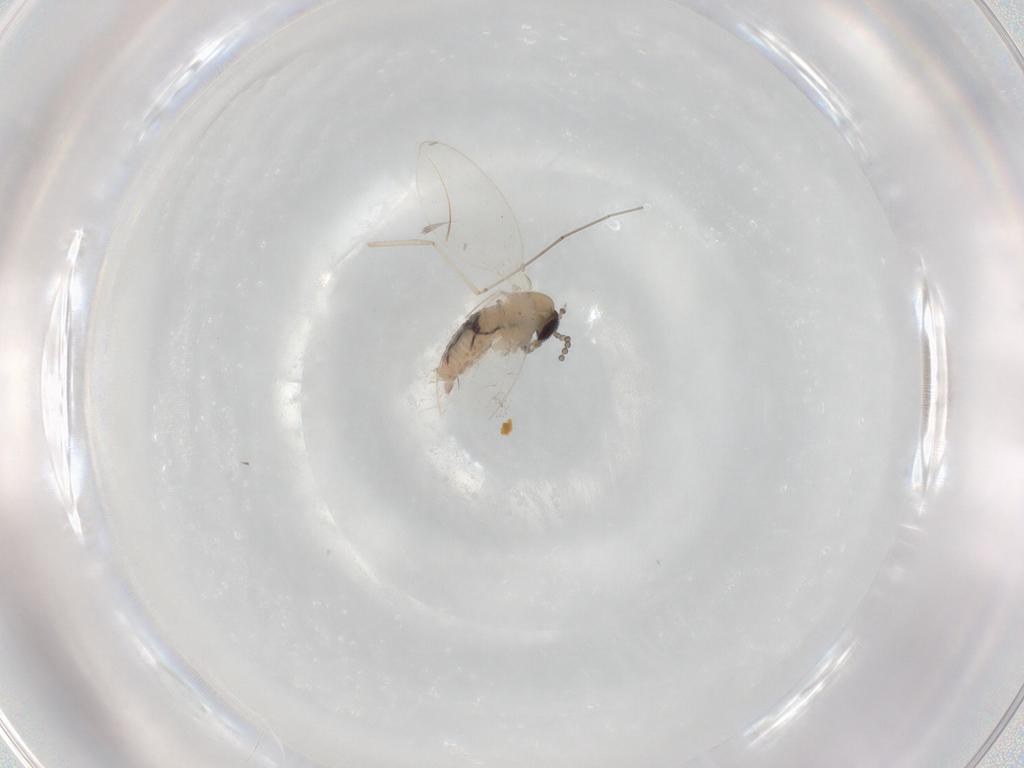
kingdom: Animalia
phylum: Arthropoda
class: Insecta
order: Diptera
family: Psychodidae
